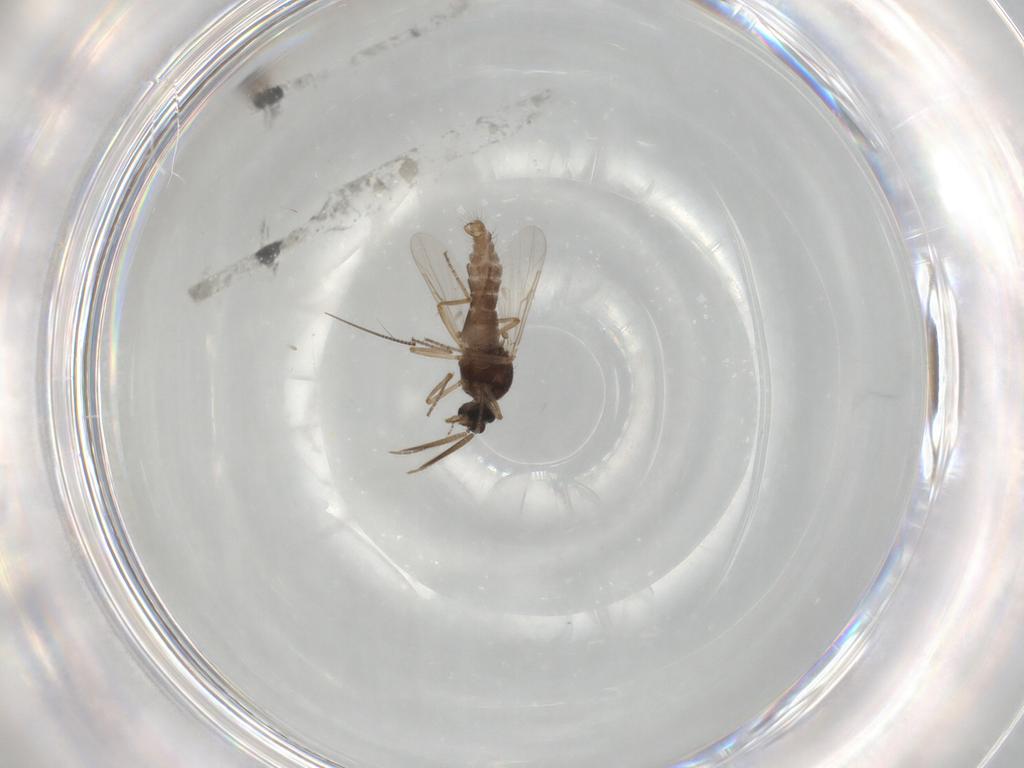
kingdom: Animalia
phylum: Arthropoda
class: Insecta
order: Diptera
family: Ceratopogonidae
